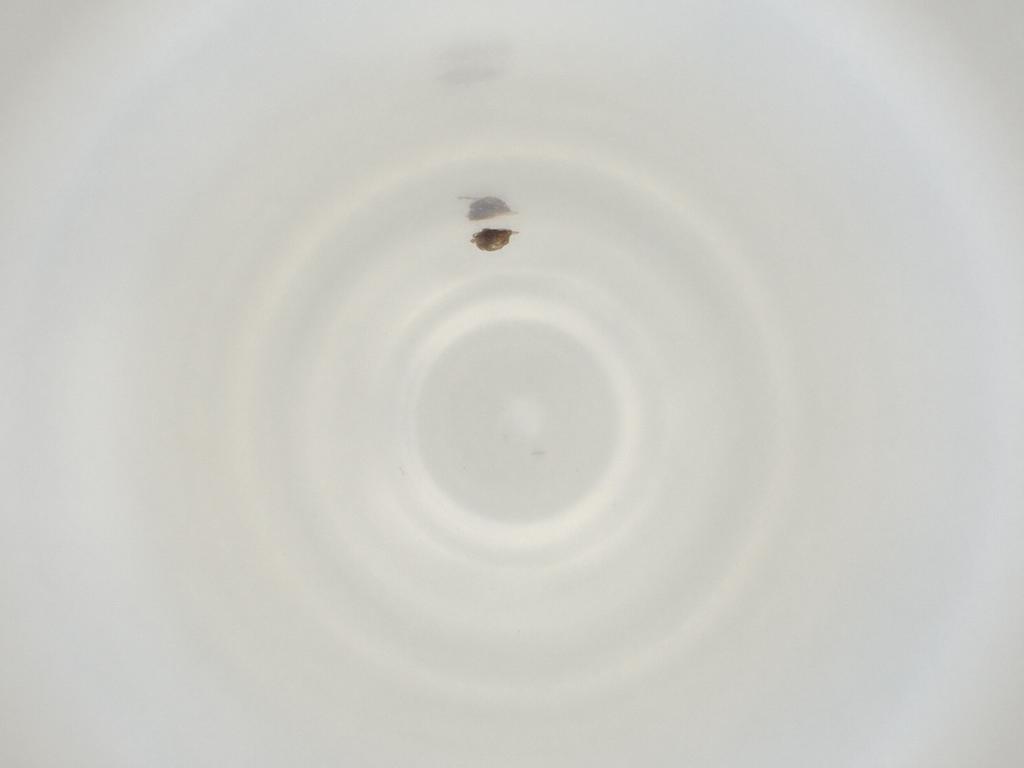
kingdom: Animalia
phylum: Arthropoda
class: Insecta
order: Diptera
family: Cecidomyiidae
